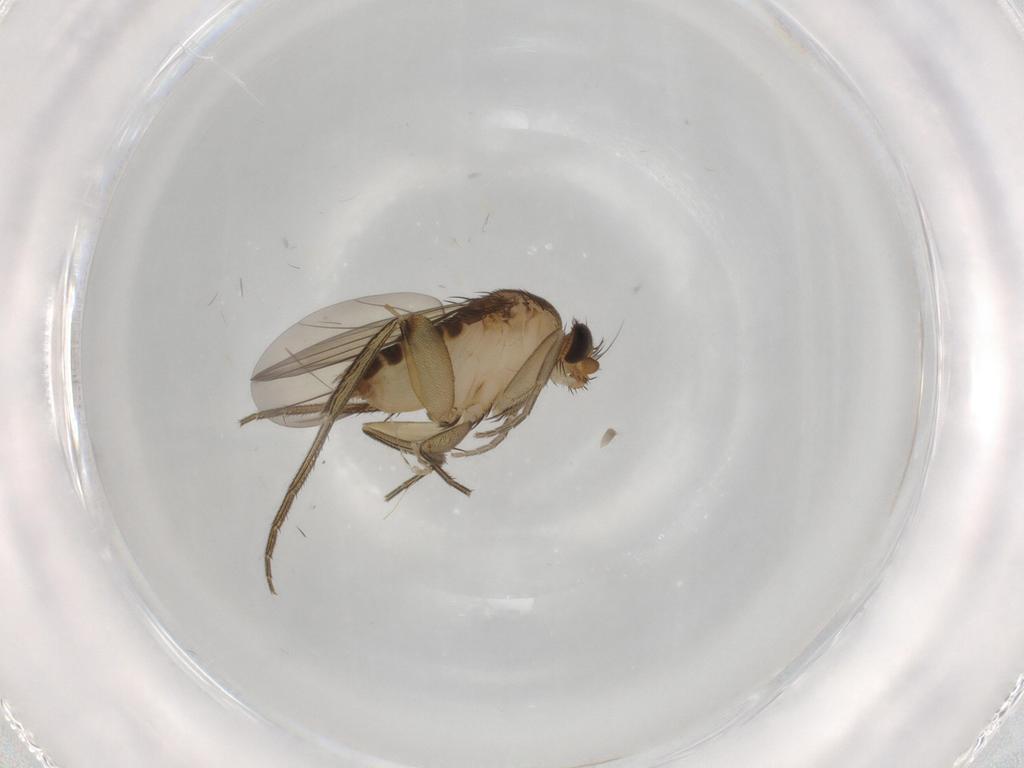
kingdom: Animalia
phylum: Arthropoda
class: Insecta
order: Diptera
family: Phoridae
